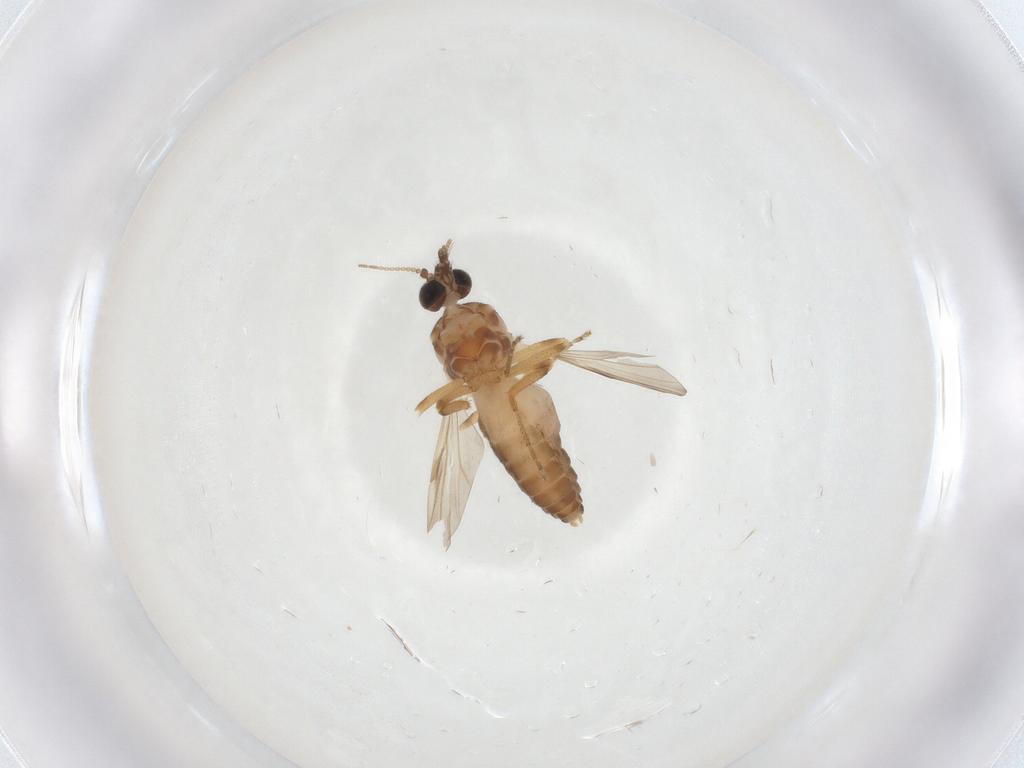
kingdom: Animalia
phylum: Arthropoda
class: Insecta
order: Diptera
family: Ceratopogonidae
